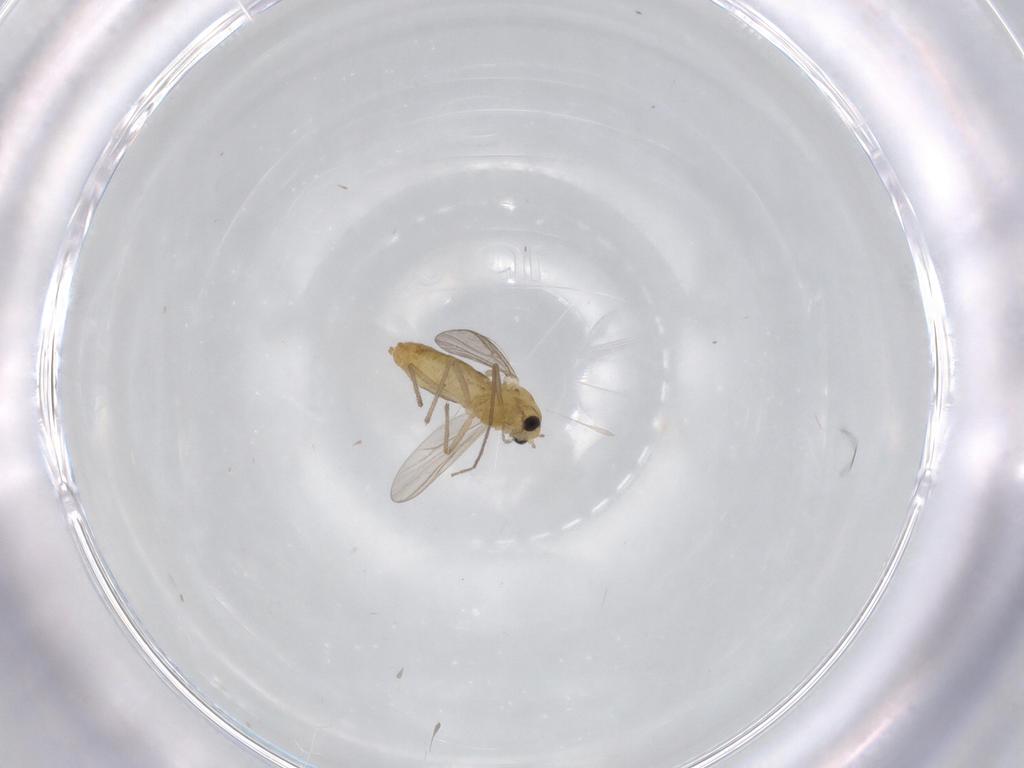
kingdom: Animalia
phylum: Arthropoda
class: Insecta
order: Diptera
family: Chironomidae
